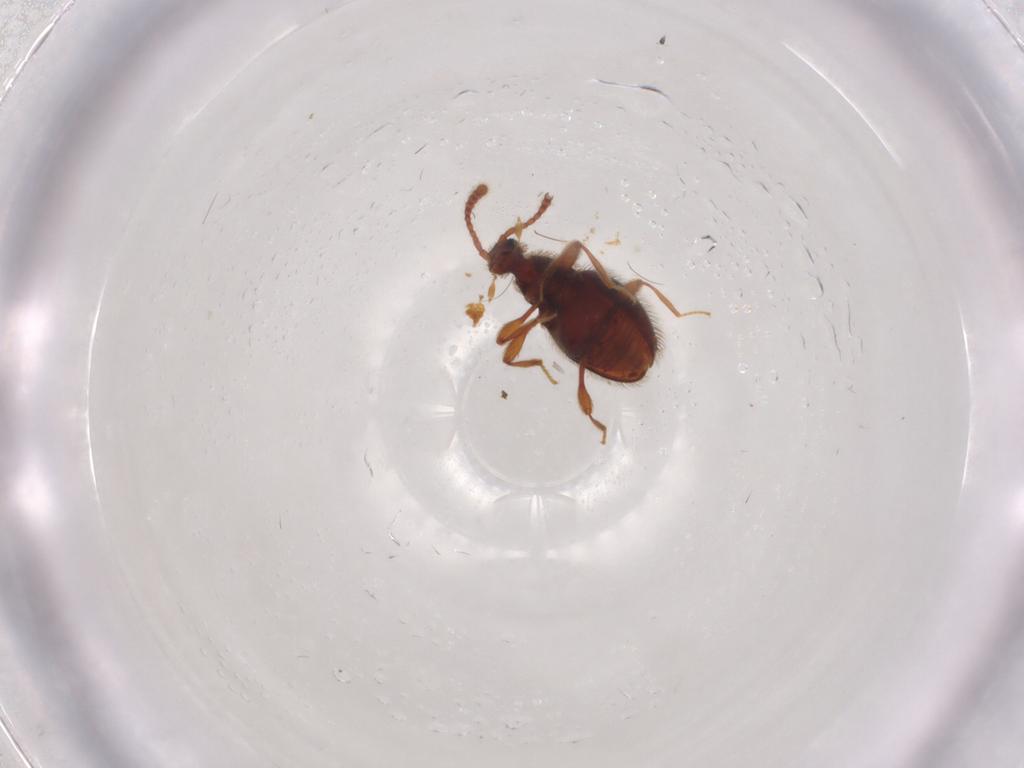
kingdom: Animalia
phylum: Arthropoda
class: Insecta
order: Coleoptera
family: Staphylinidae
